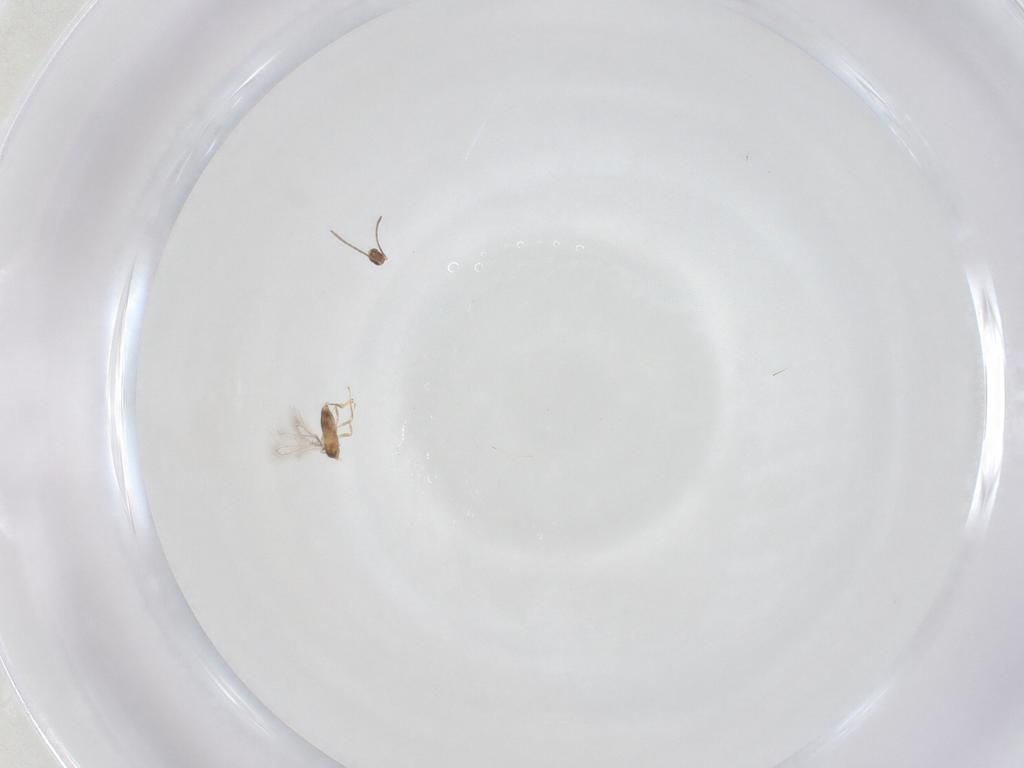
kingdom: Animalia
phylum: Arthropoda
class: Insecta
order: Hymenoptera
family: Mymaridae
